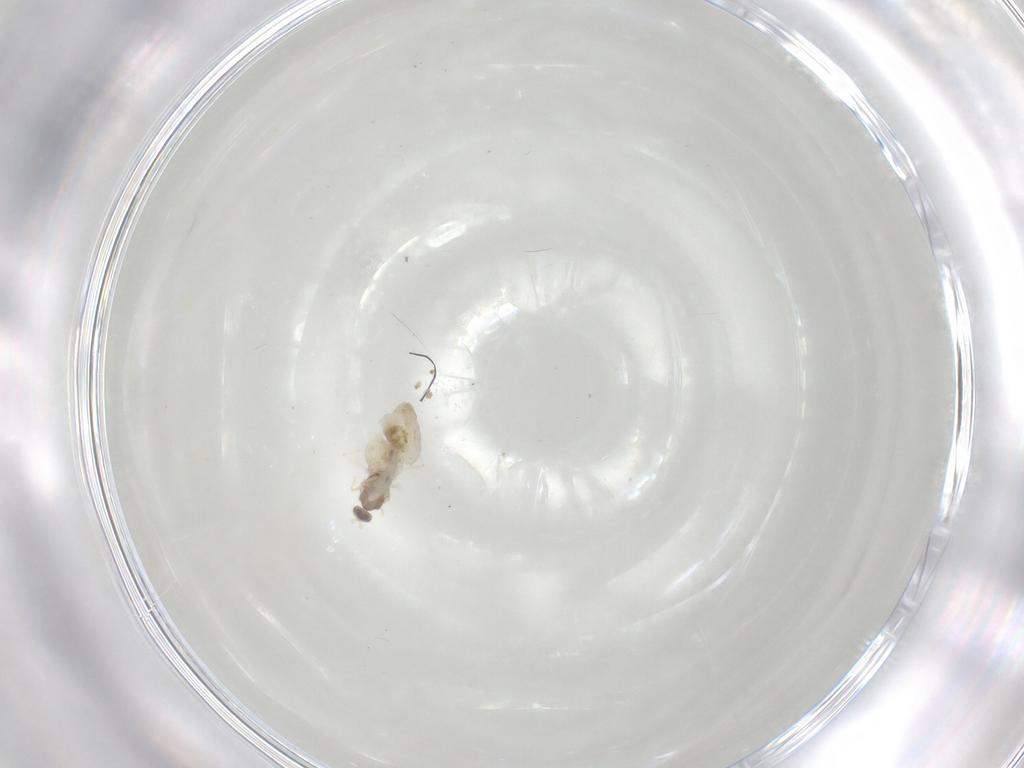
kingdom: Animalia
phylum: Arthropoda
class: Insecta
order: Diptera
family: Cecidomyiidae
